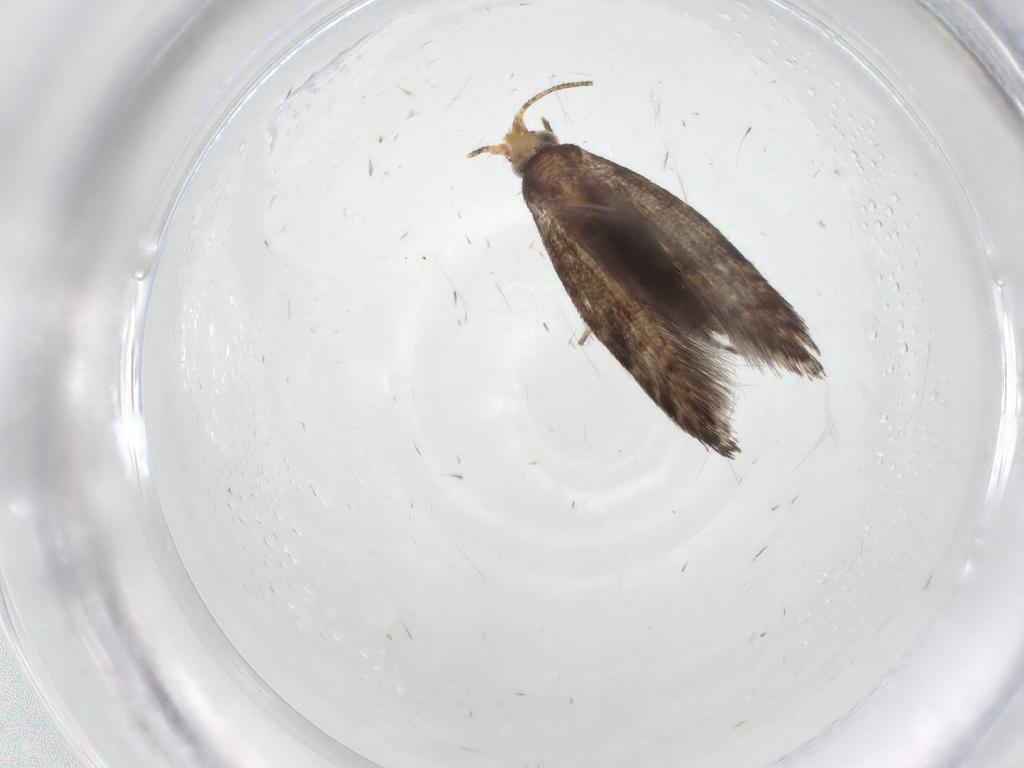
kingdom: Animalia
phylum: Arthropoda
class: Insecta
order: Lepidoptera
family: Argyresthiidae
